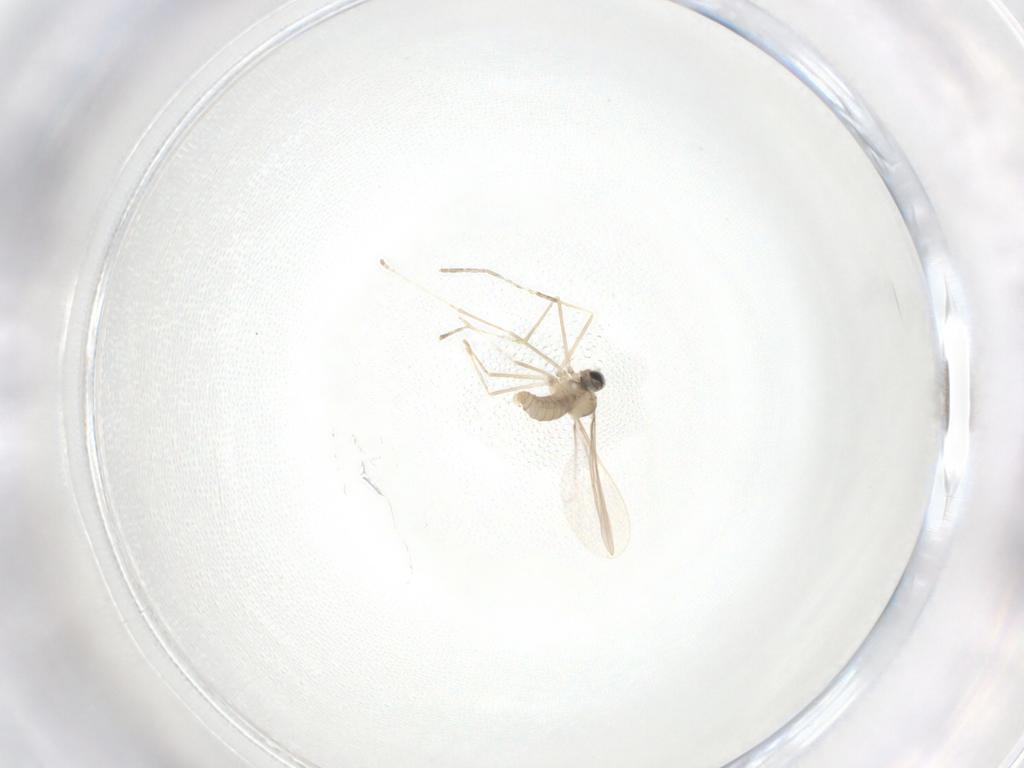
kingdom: Animalia
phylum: Arthropoda
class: Insecta
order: Diptera
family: Cecidomyiidae
